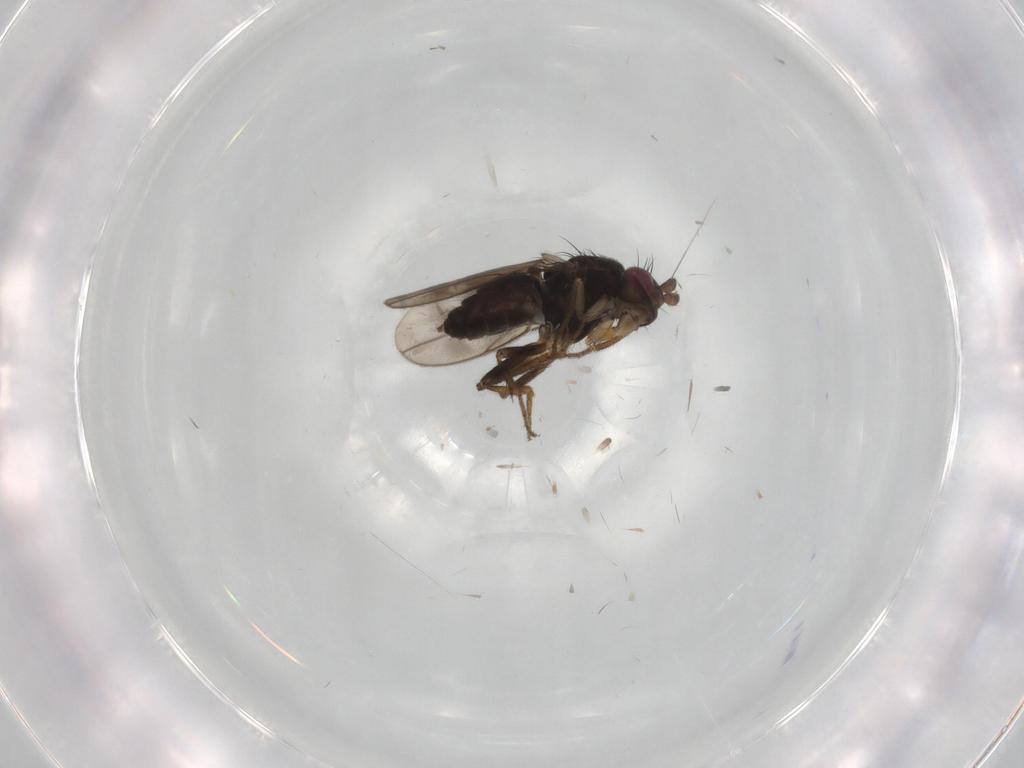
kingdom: Animalia
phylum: Arthropoda
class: Insecta
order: Diptera
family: Sphaeroceridae
